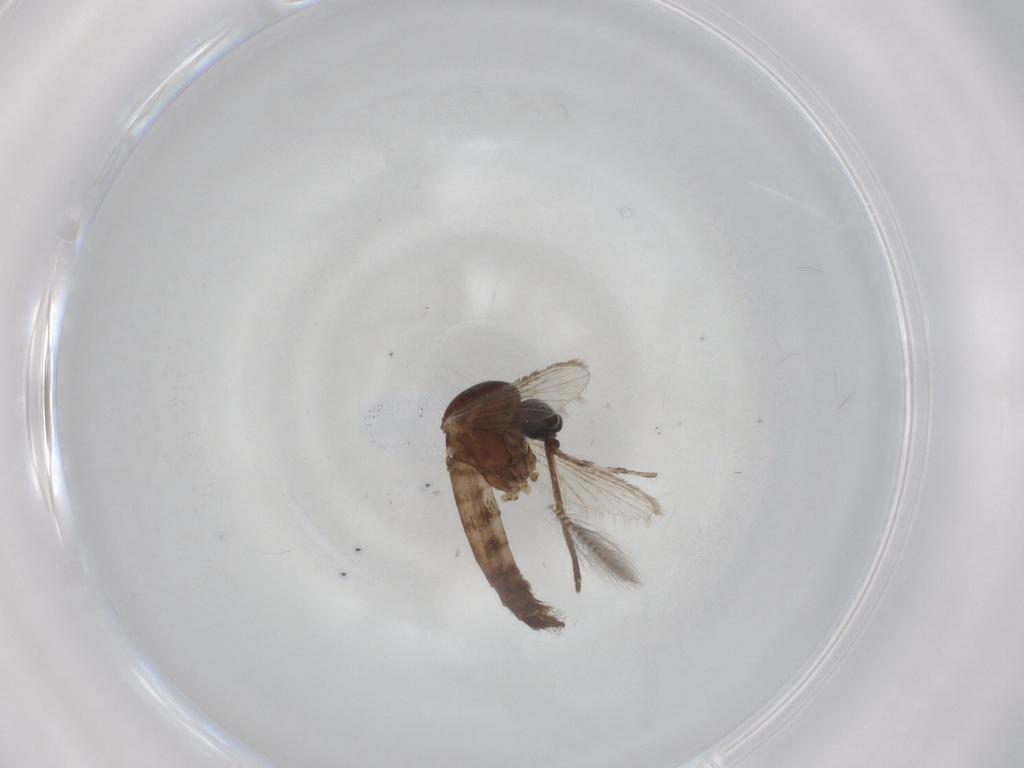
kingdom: Animalia
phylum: Arthropoda
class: Insecta
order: Diptera
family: Cecidomyiidae
